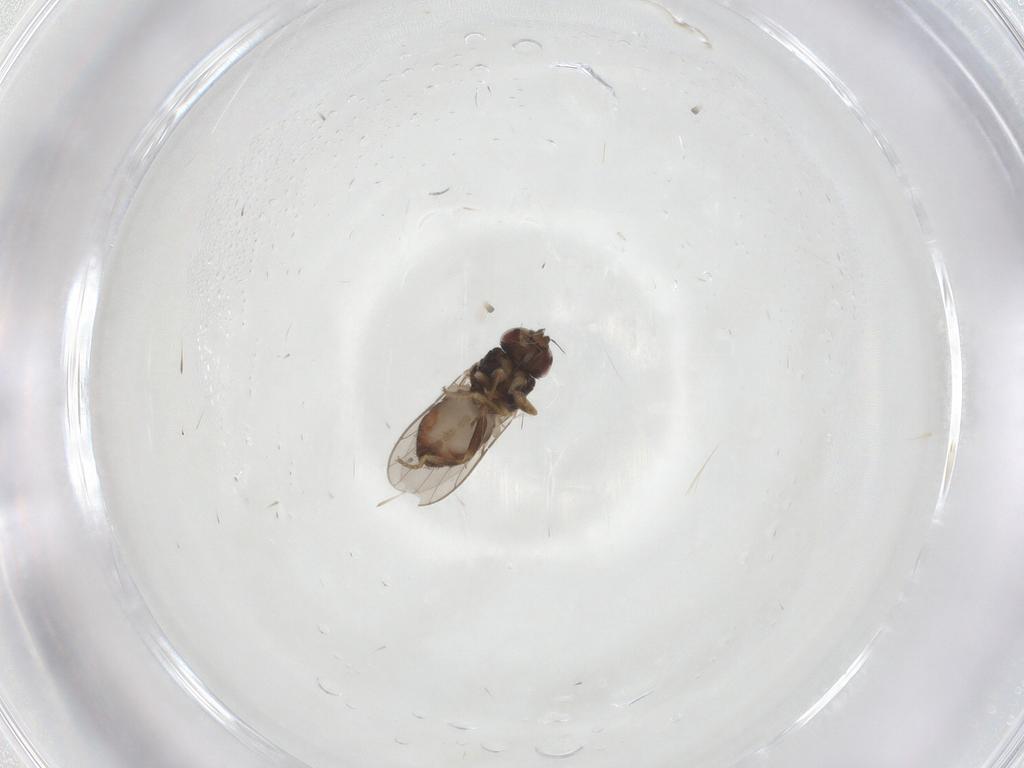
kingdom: Animalia
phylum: Arthropoda
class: Insecta
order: Diptera
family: Chloropidae
